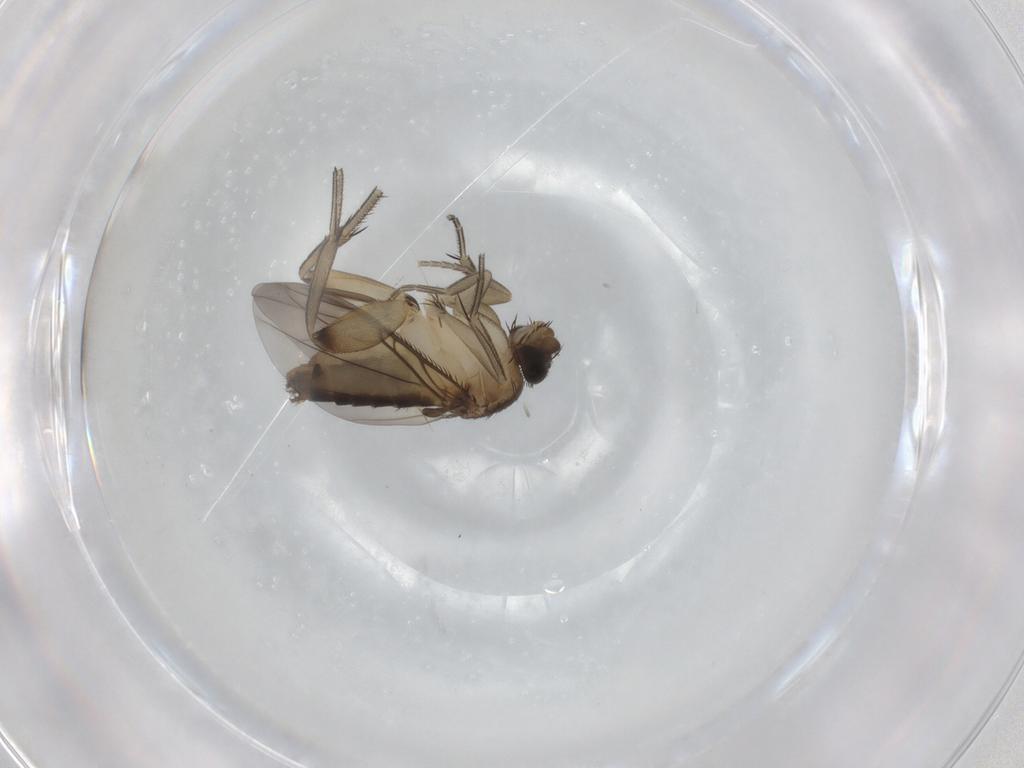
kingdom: Animalia
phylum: Arthropoda
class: Insecta
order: Diptera
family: Phoridae
